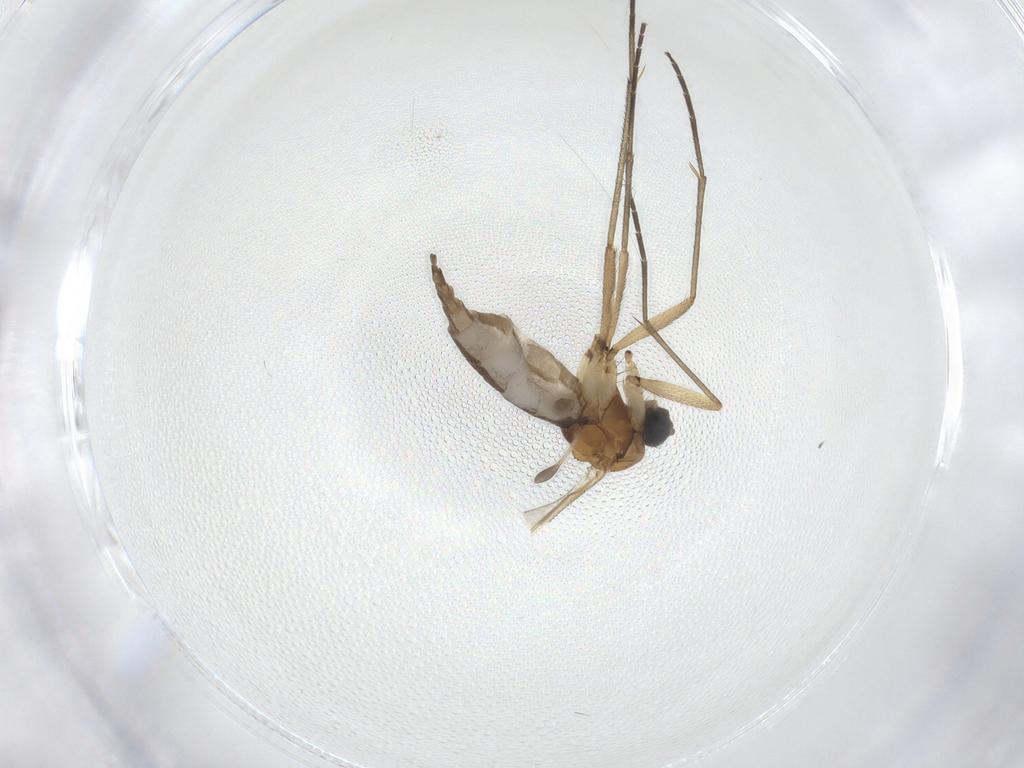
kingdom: Animalia
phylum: Arthropoda
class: Insecta
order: Diptera
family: Sciaridae
